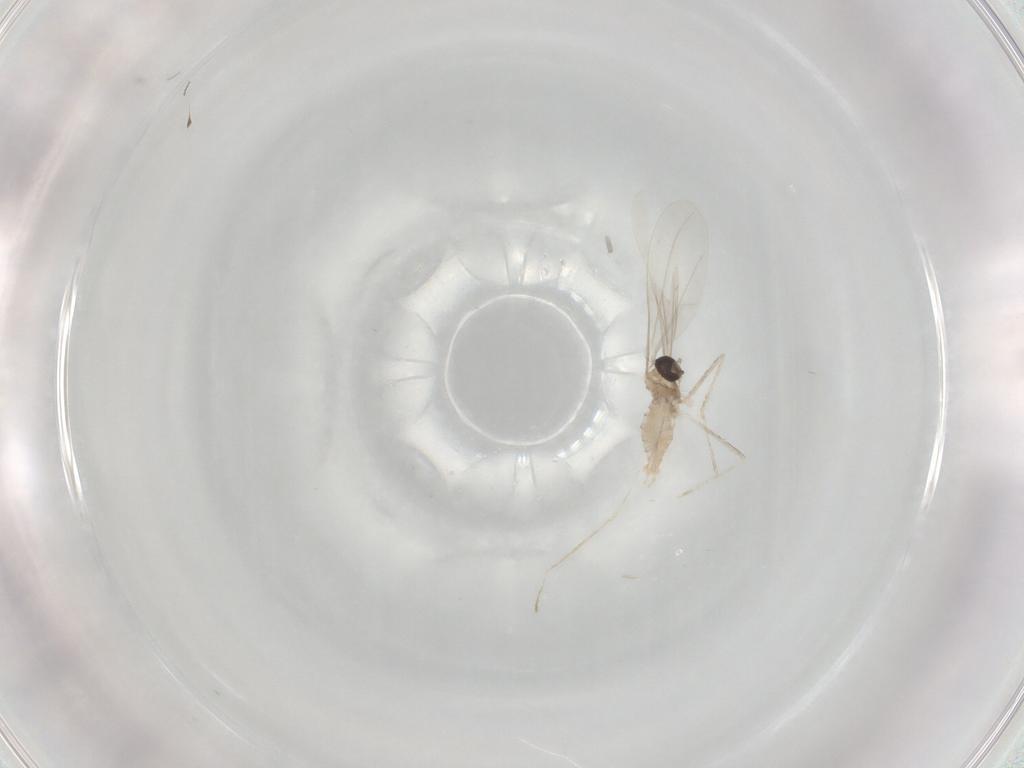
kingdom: Animalia
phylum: Arthropoda
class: Insecta
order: Diptera
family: Cecidomyiidae
